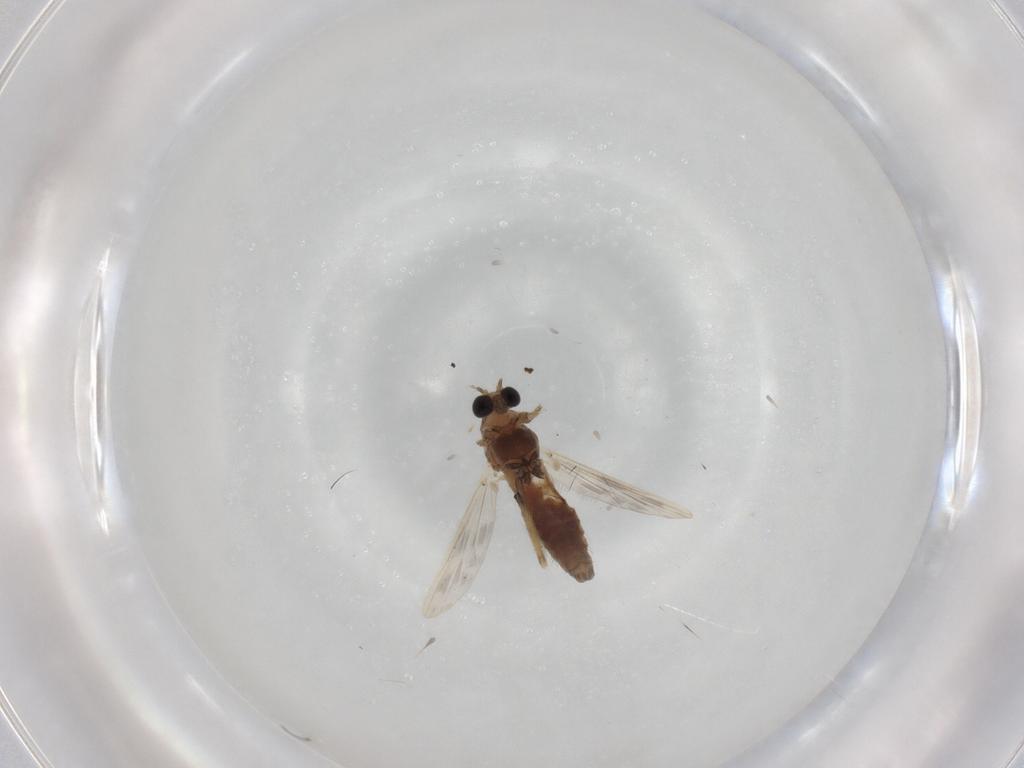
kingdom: Animalia
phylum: Arthropoda
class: Insecta
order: Diptera
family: Chironomidae
